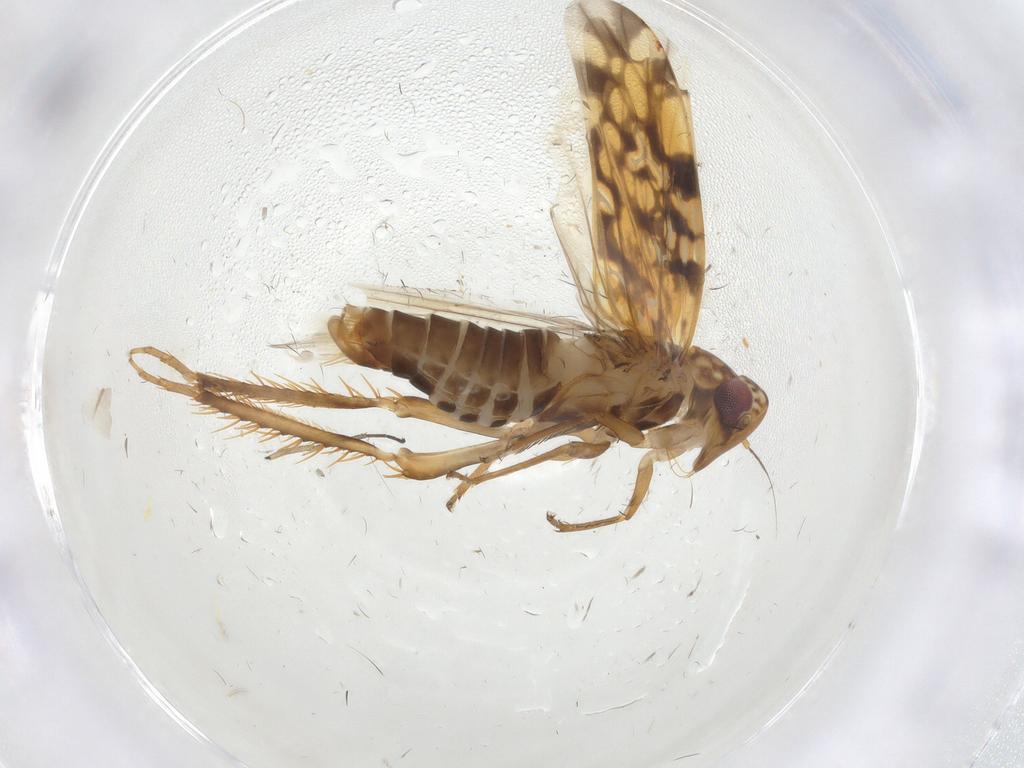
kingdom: Animalia
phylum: Arthropoda
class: Insecta
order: Hemiptera
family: Cicadellidae
